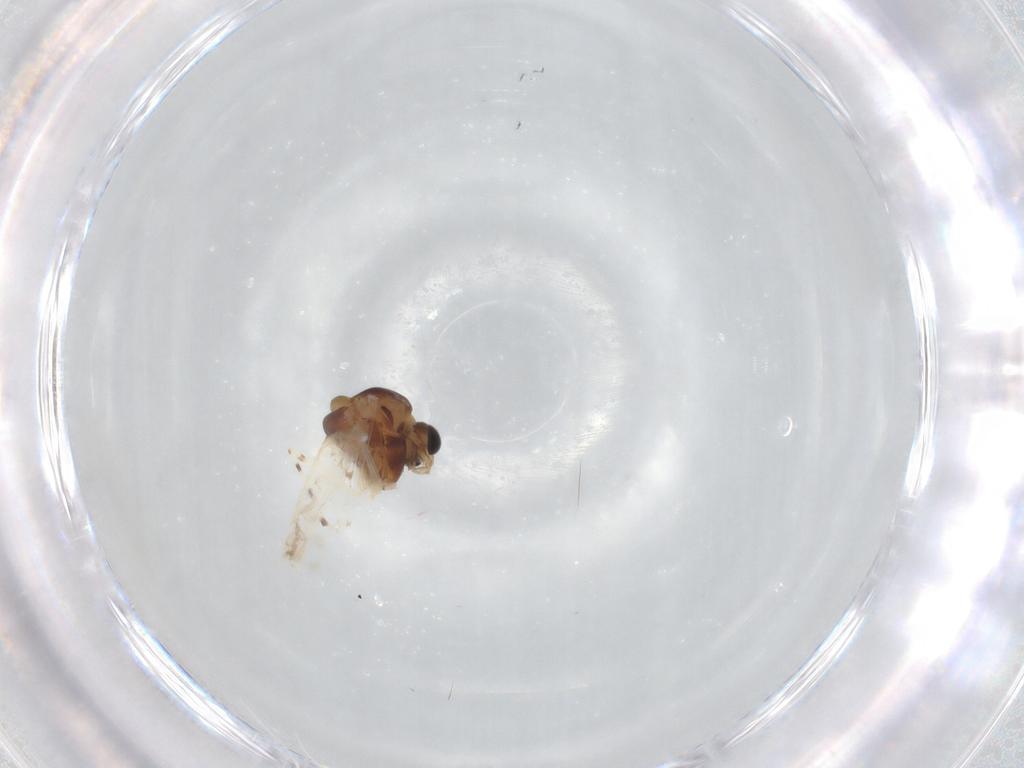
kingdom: Animalia
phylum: Arthropoda
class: Insecta
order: Diptera
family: Chironomidae
